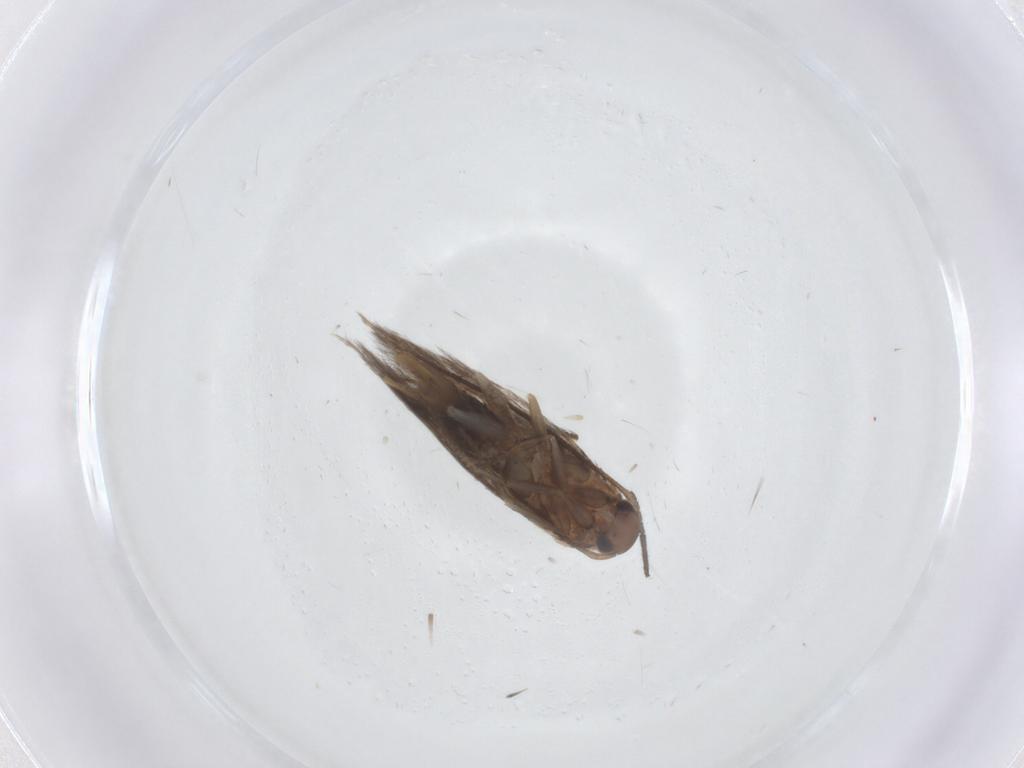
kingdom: Animalia
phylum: Arthropoda
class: Insecta
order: Lepidoptera
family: Elachistidae
